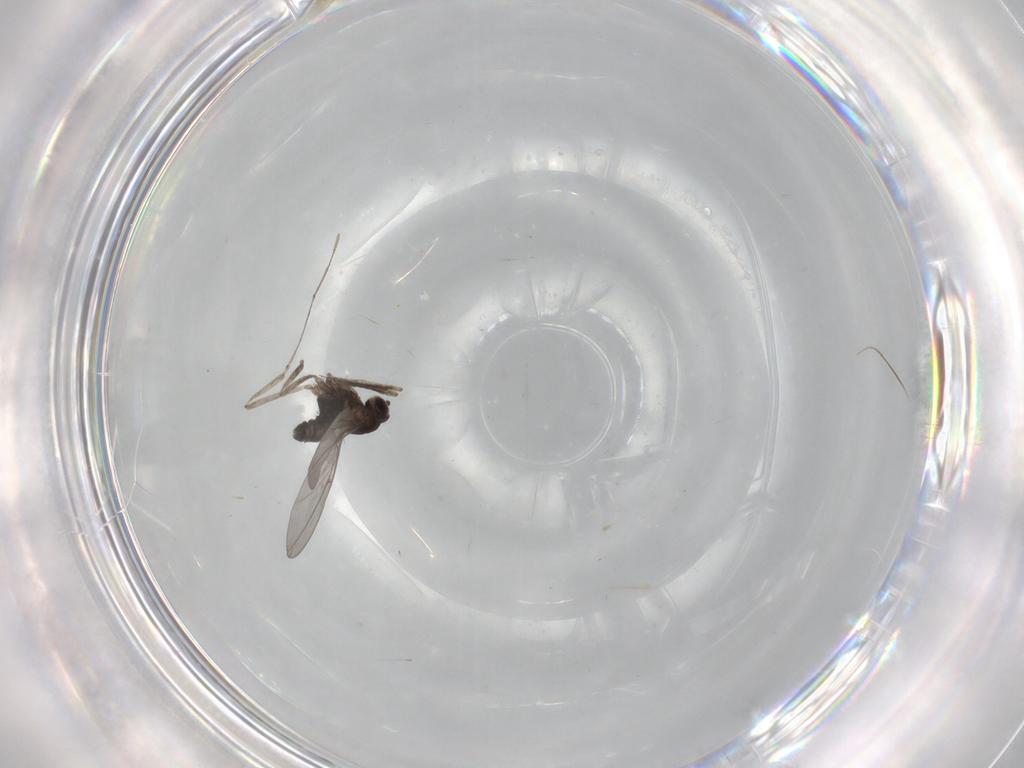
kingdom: Animalia
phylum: Arthropoda
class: Insecta
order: Diptera
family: Cecidomyiidae
